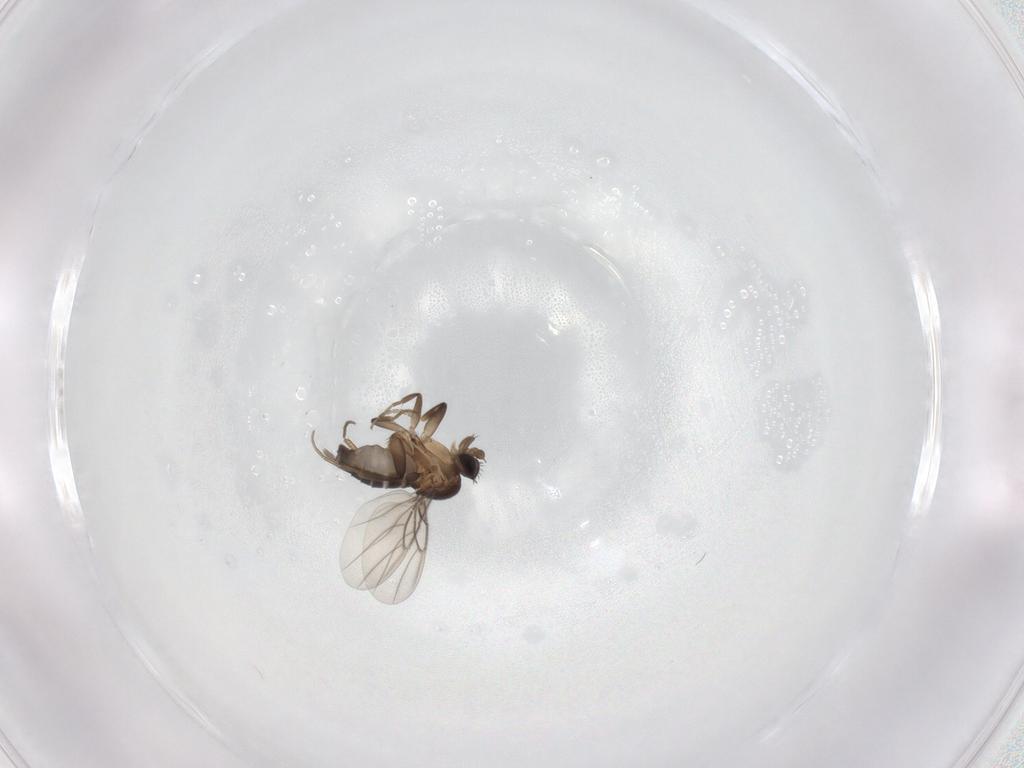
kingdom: Animalia
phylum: Arthropoda
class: Insecta
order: Diptera
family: Phoridae
